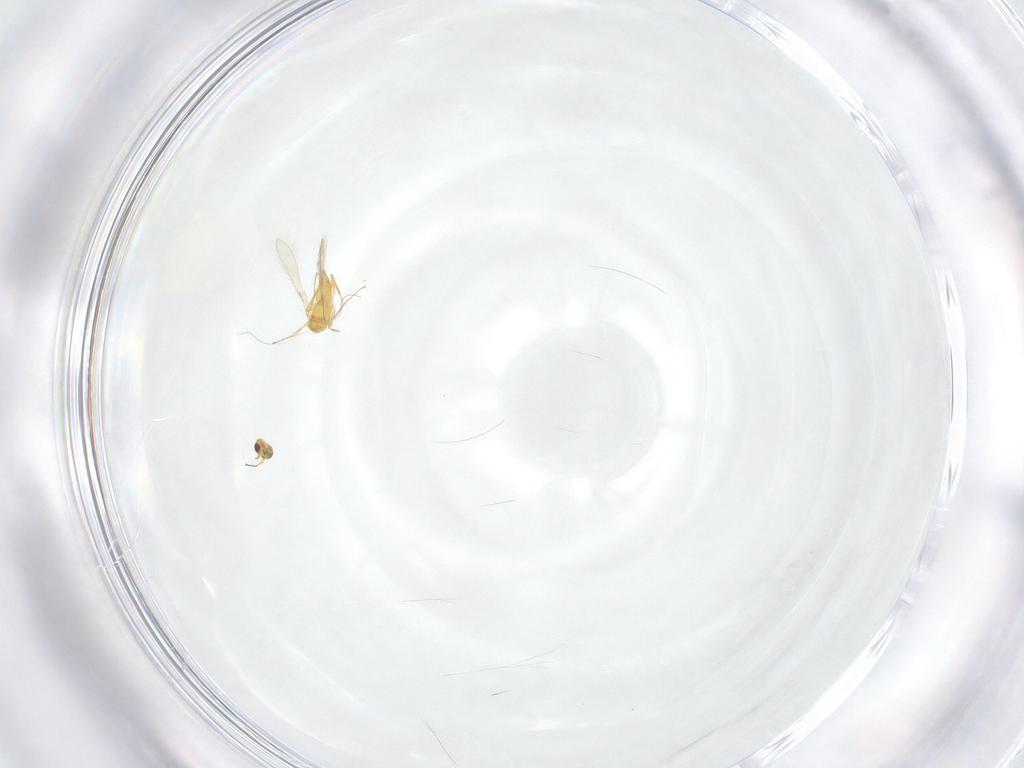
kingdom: Animalia
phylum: Arthropoda
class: Insecta
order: Hymenoptera
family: Mymaridae
